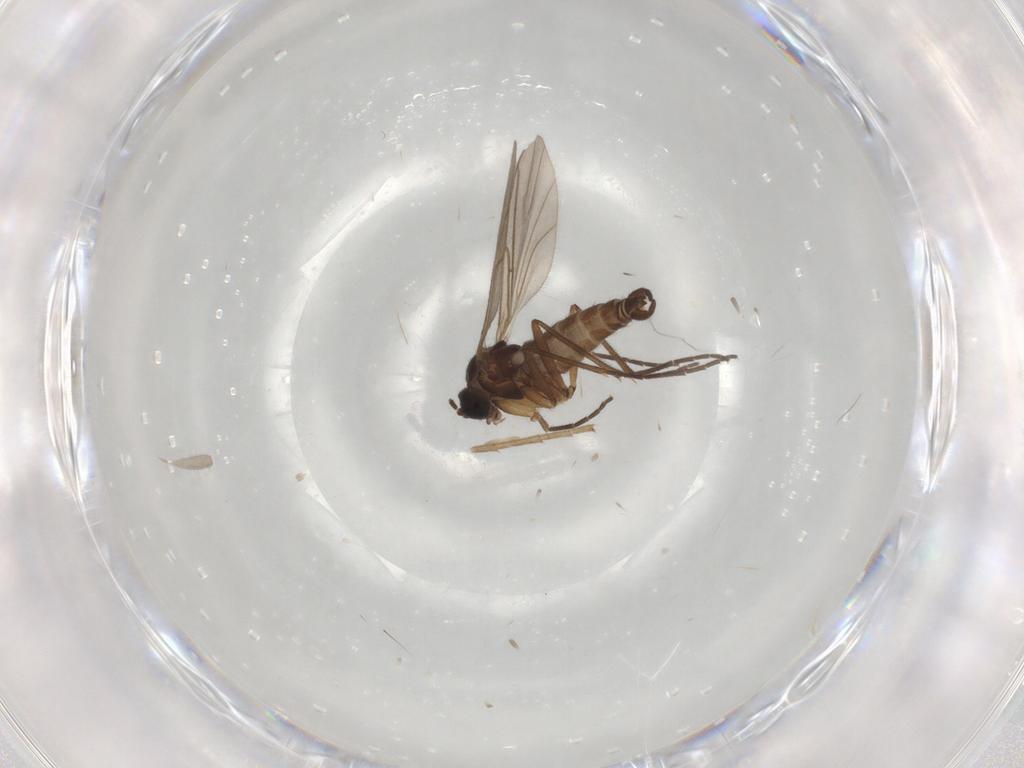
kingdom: Animalia
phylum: Arthropoda
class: Insecta
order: Diptera
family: Sciaridae
